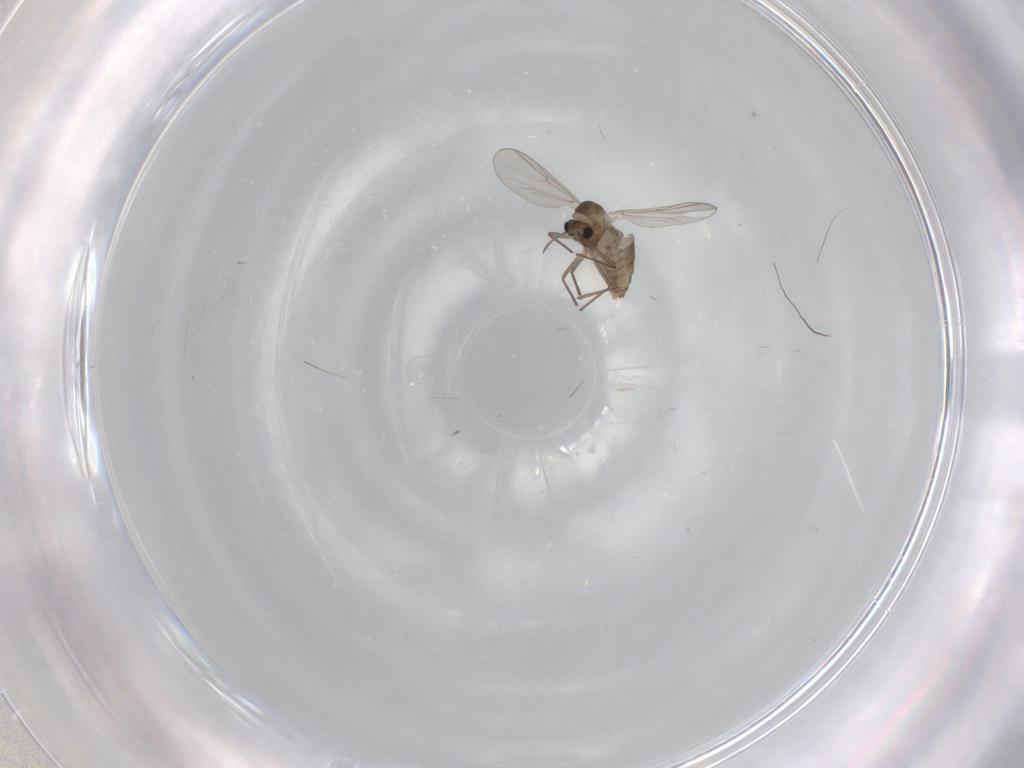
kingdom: Animalia
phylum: Arthropoda
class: Insecta
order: Diptera
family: Chironomidae
